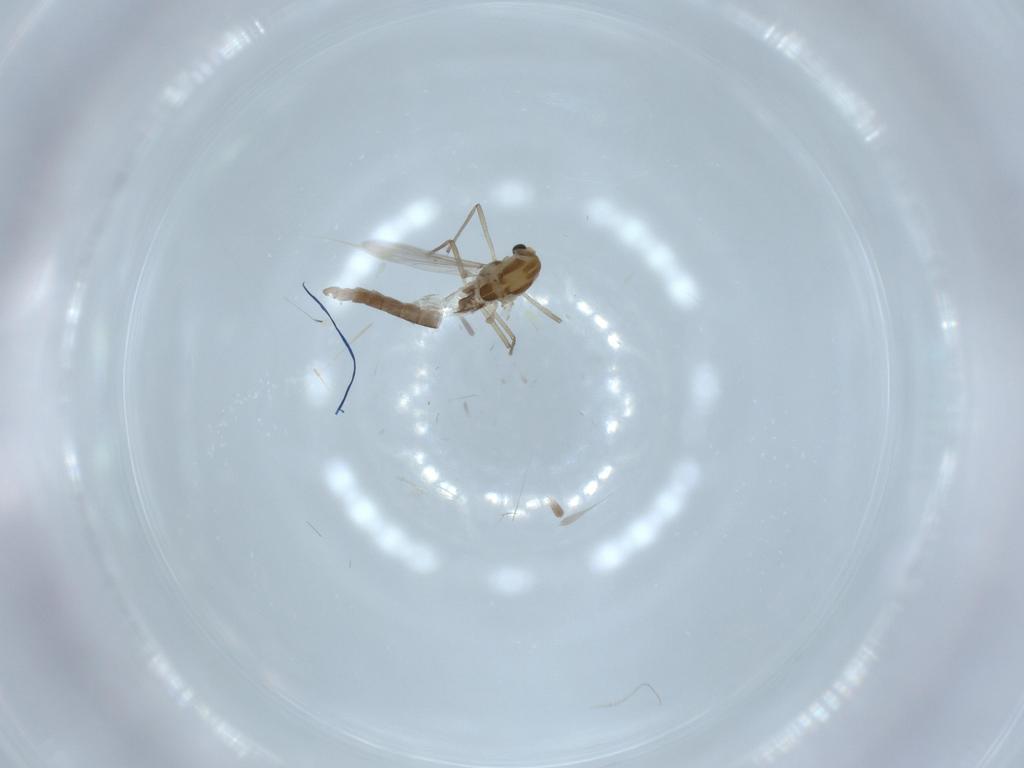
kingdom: Animalia
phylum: Arthropoda
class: Insecta
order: Diptera
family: Chironomidae
